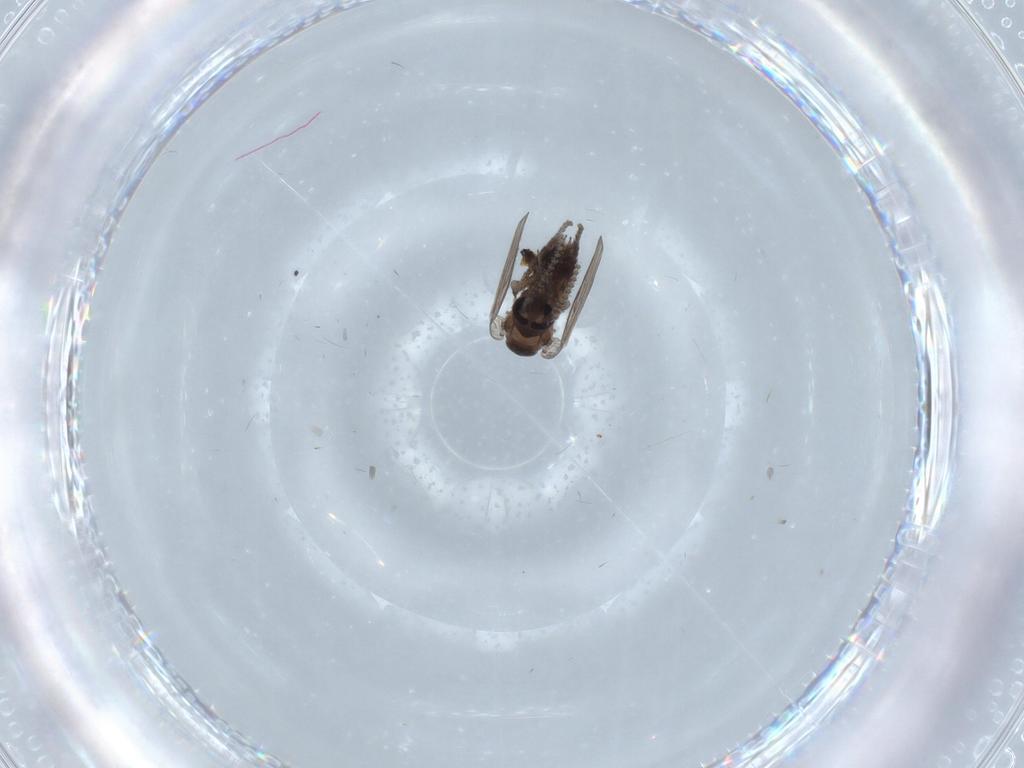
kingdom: Animalia
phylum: Arthropoda
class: Insecta
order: Diptera
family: Psychodidae
